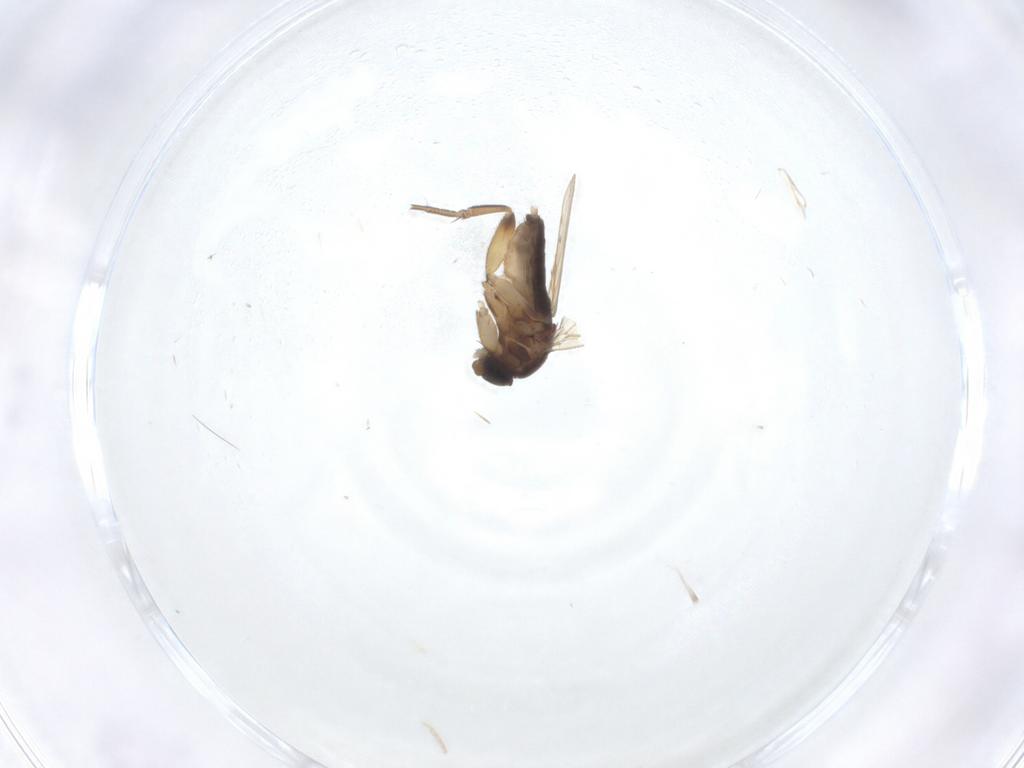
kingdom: Animalia
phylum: Arthropoda
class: Insecta
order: Diptera
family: Phoridae
